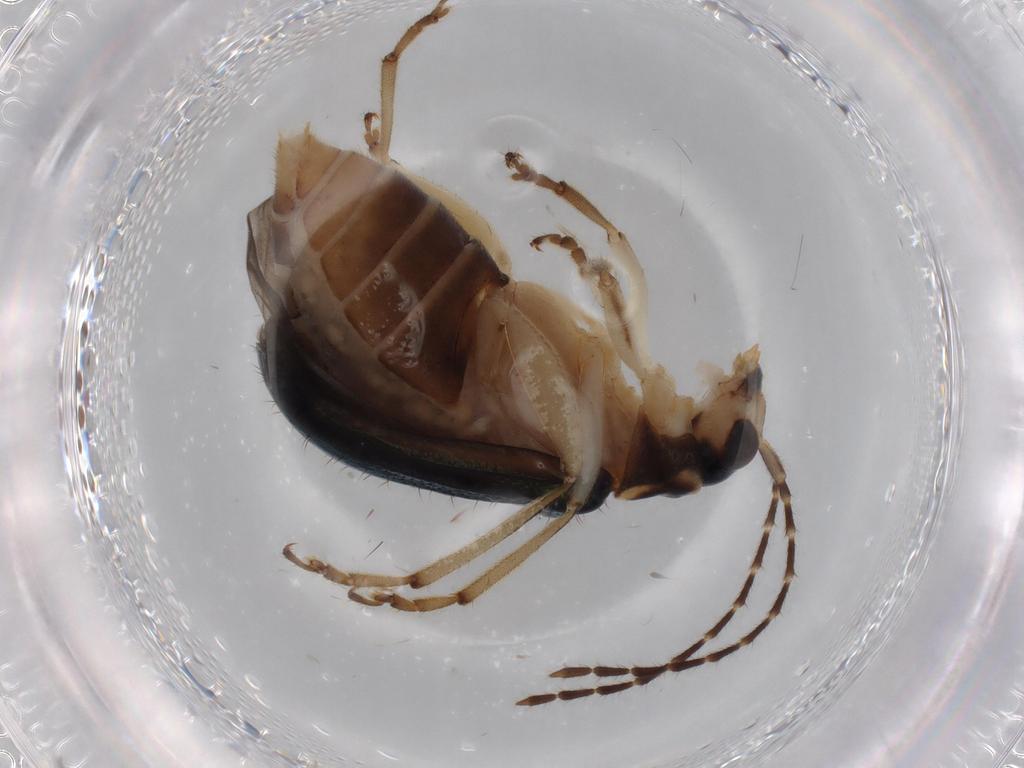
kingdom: Animalia
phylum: Arthropoda
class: Insecta
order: Coleoptera
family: Chrysomelidae
